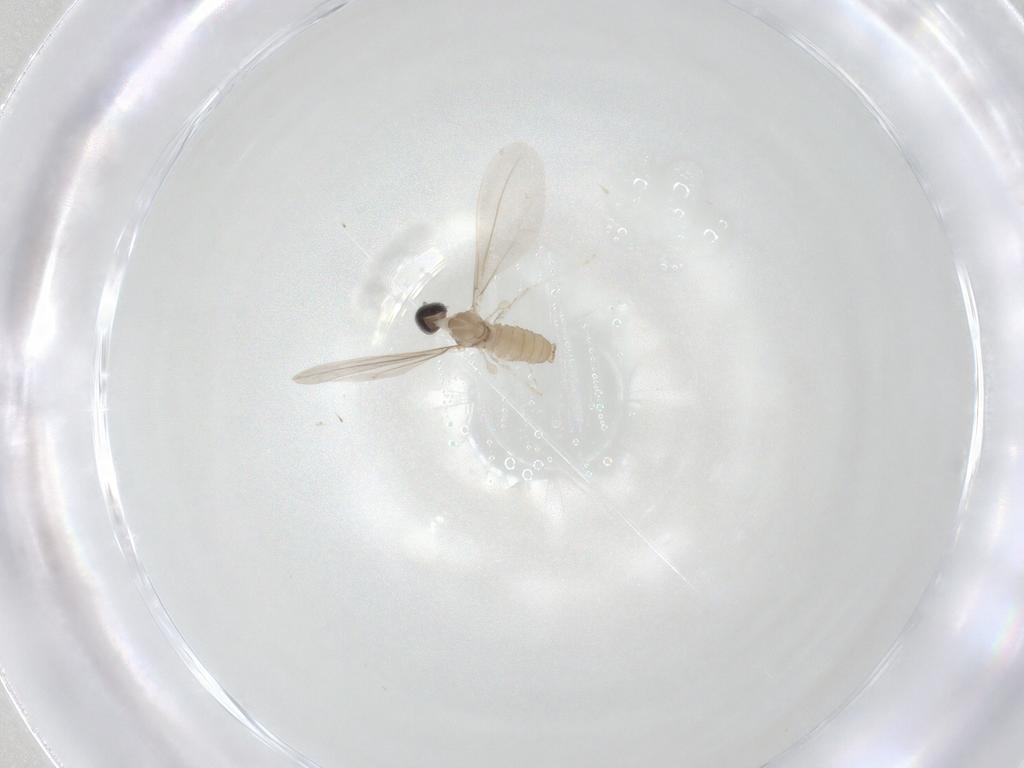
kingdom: Animalia
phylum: Arthropoda
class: Insecta
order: Diptera
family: Cecidomyiidae
